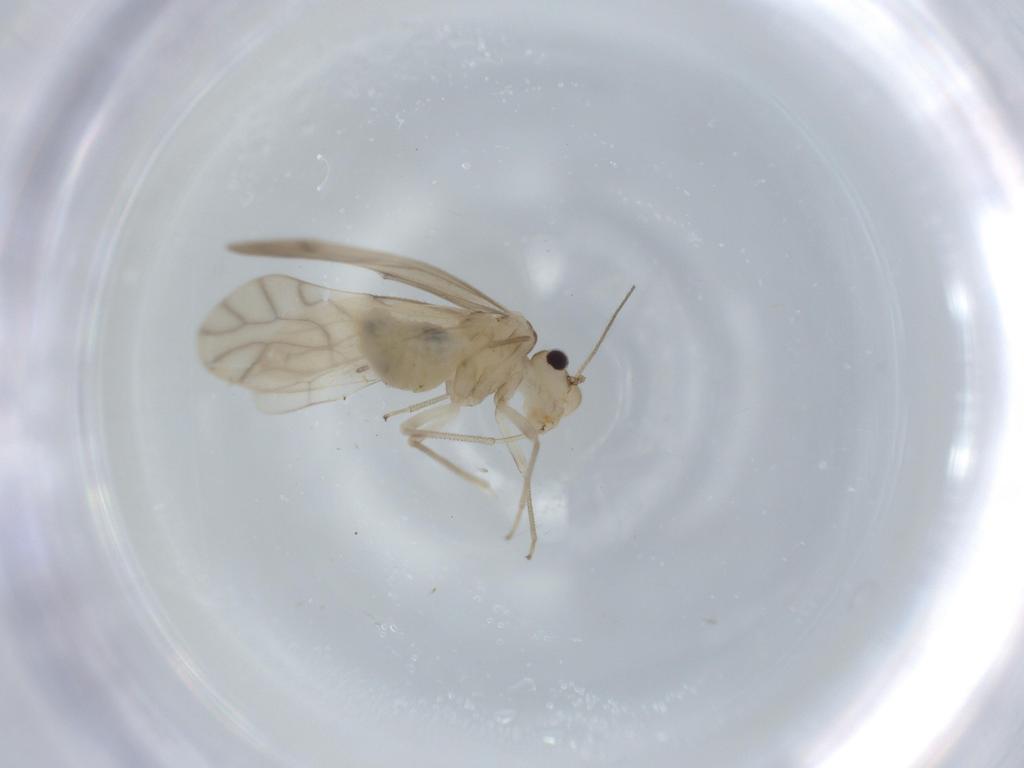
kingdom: Animalia
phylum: Arthropoda
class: Insecta
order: Psocodea
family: Caeciliusidae
